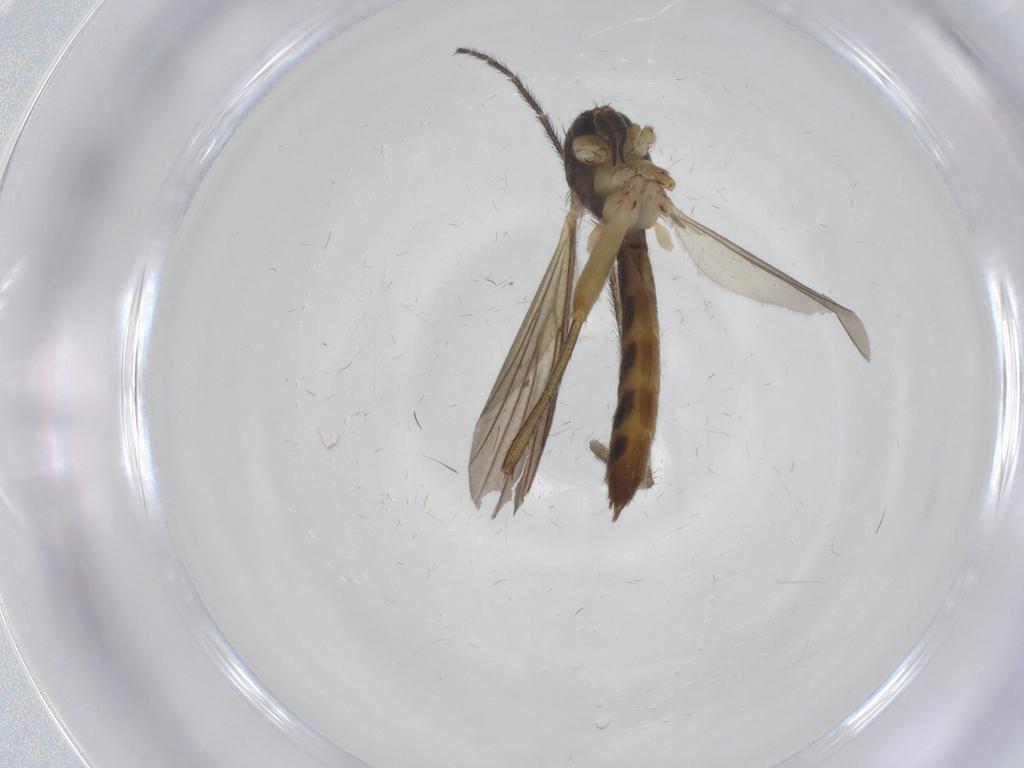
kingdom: Animalia
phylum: Arthropoda
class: Insecta
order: Diptera
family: Mycetophilidae
